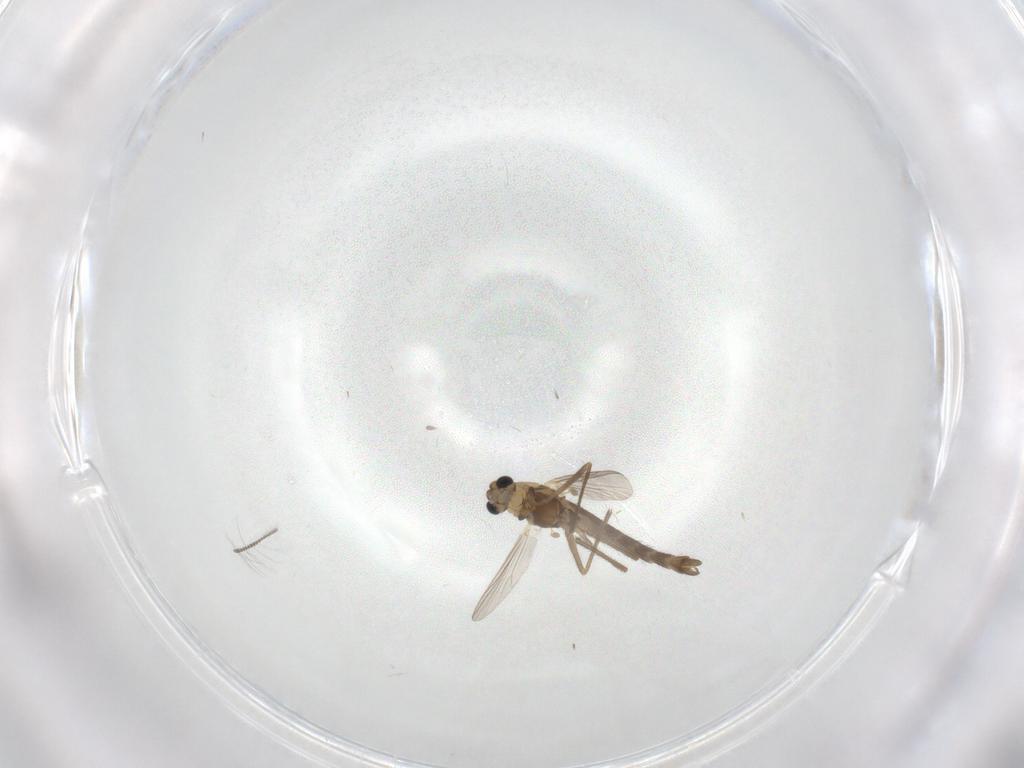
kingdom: Animalia
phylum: Arthropoda
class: Insecta
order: Diptera
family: Chironomidae
